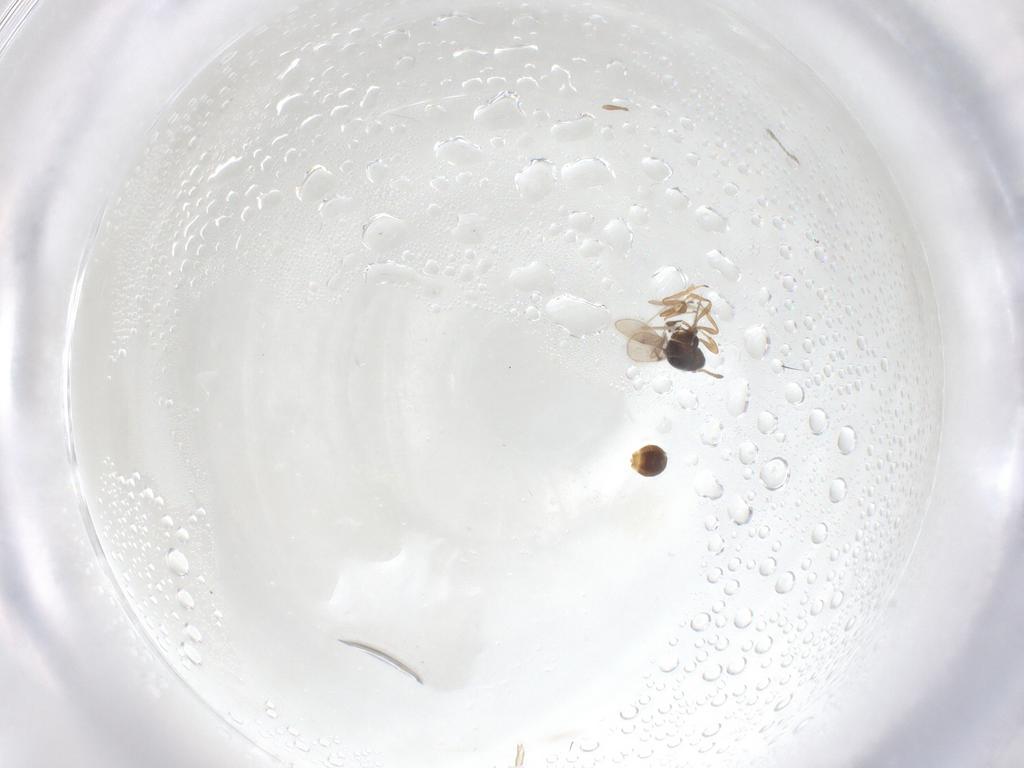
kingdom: Animalia
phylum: Arthropoda
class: Insecta
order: Hymenoptera
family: Scelionidae
